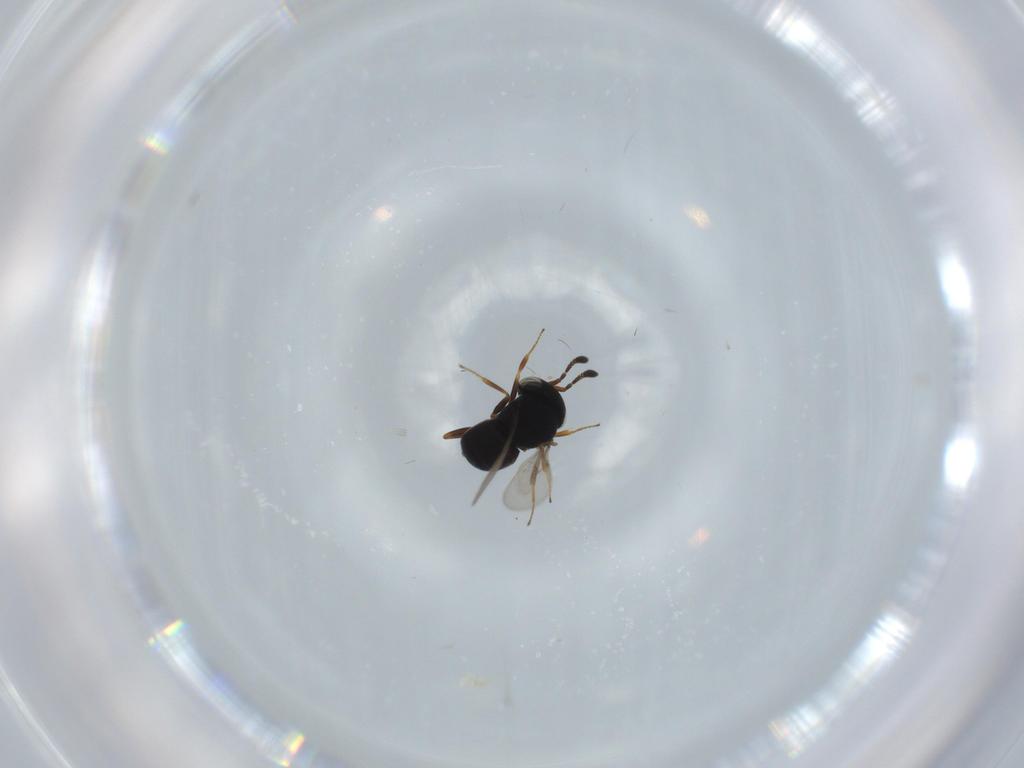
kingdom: Animalia
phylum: Arthropoda
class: Insecta
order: Hymenoptera
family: Scelionidae
